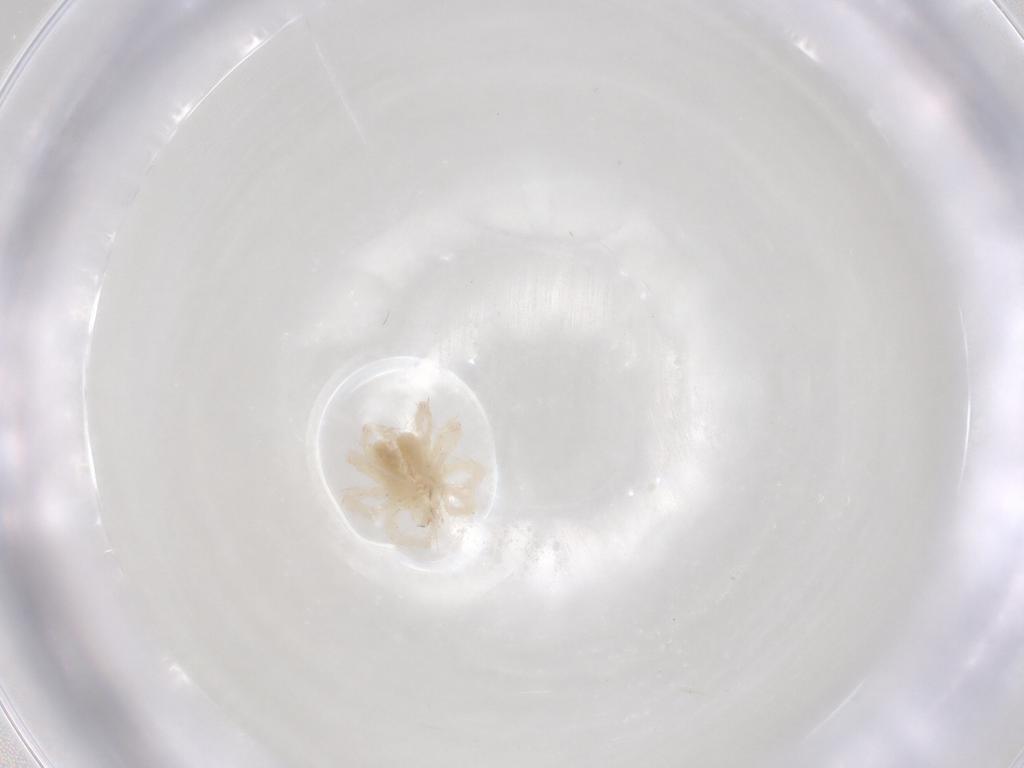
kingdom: Animalia
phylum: Arthropoda
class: Arachnida
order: Trombidiformes
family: Anystidae
